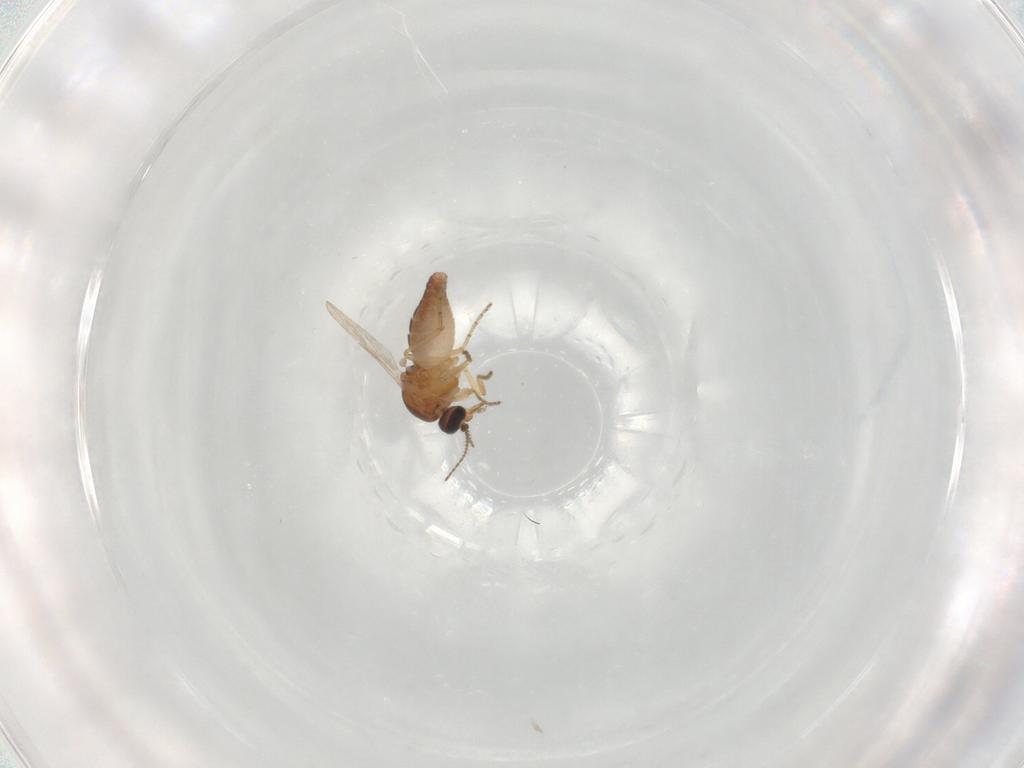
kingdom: Animalia
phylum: Arthropoda
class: Insecta
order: Diptera
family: Ceratopogonidae
